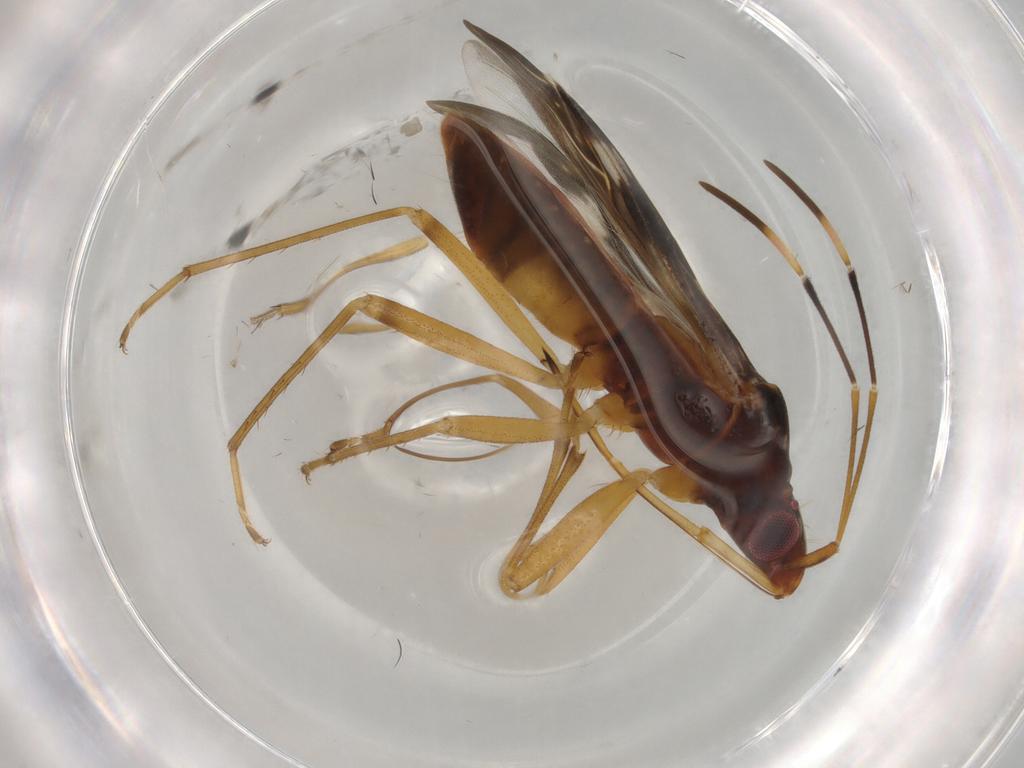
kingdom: Animalia
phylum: Arthropoda
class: Insecta
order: Hemiptera
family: Rhyparochromidae
